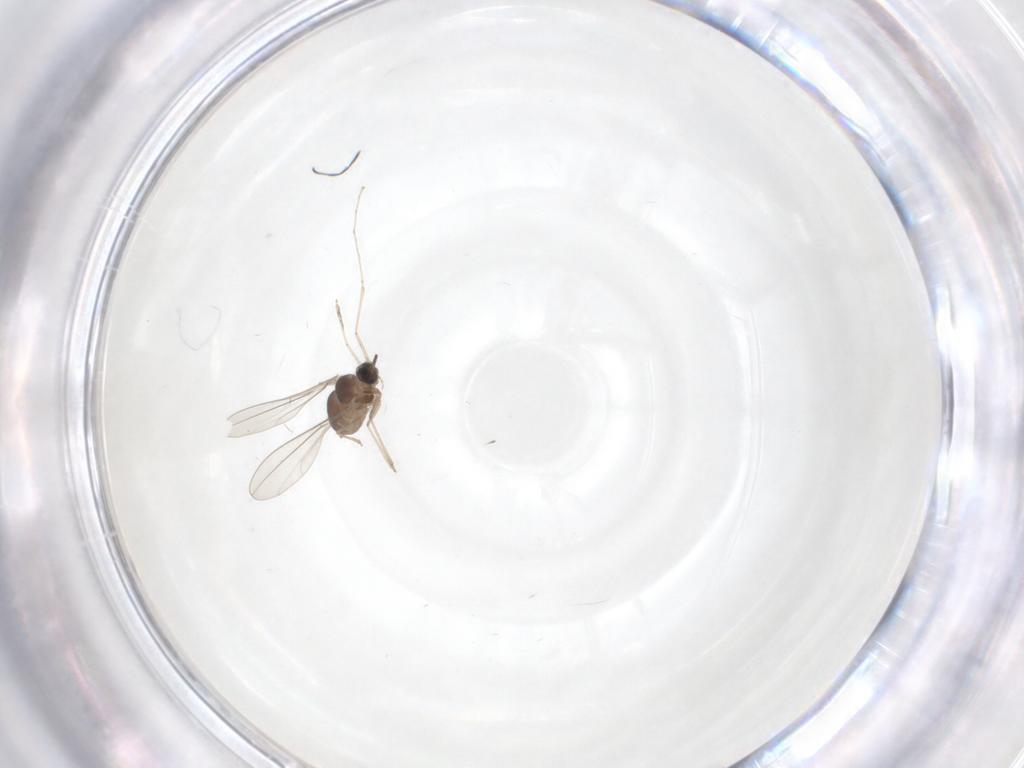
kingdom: Animalia
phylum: Arthropoda
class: Insecta
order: Diptera
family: Cecidomyiidae
